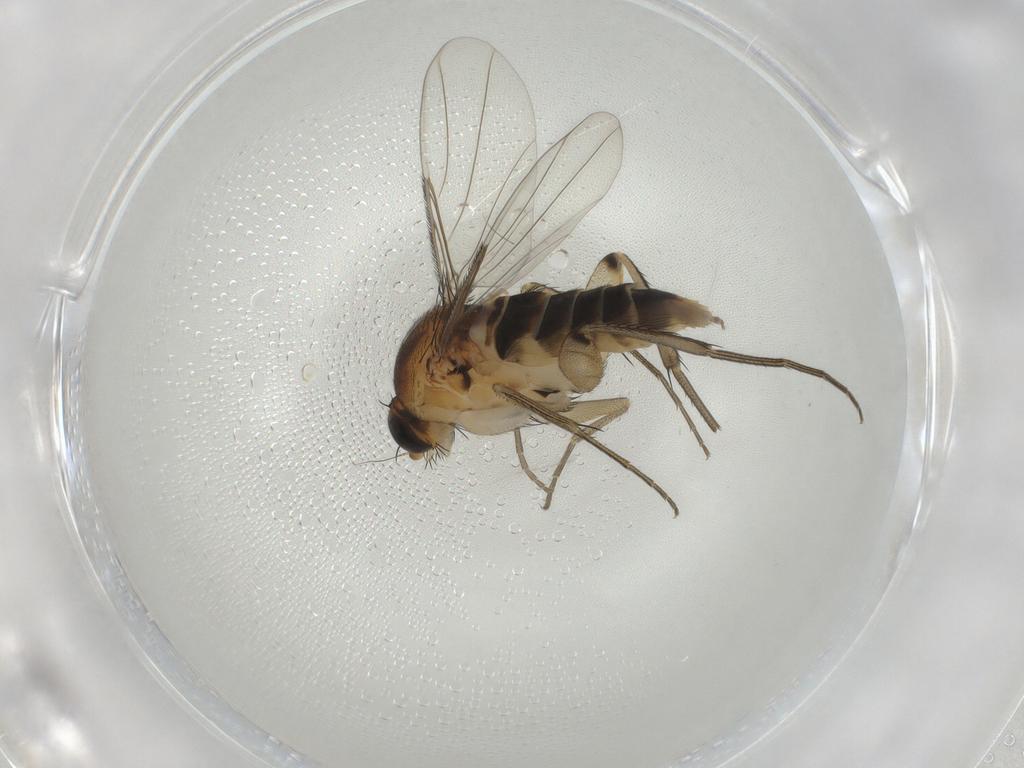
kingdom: Animalia
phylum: Arthropoda
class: Insecta
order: Diptera
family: Phoridae
